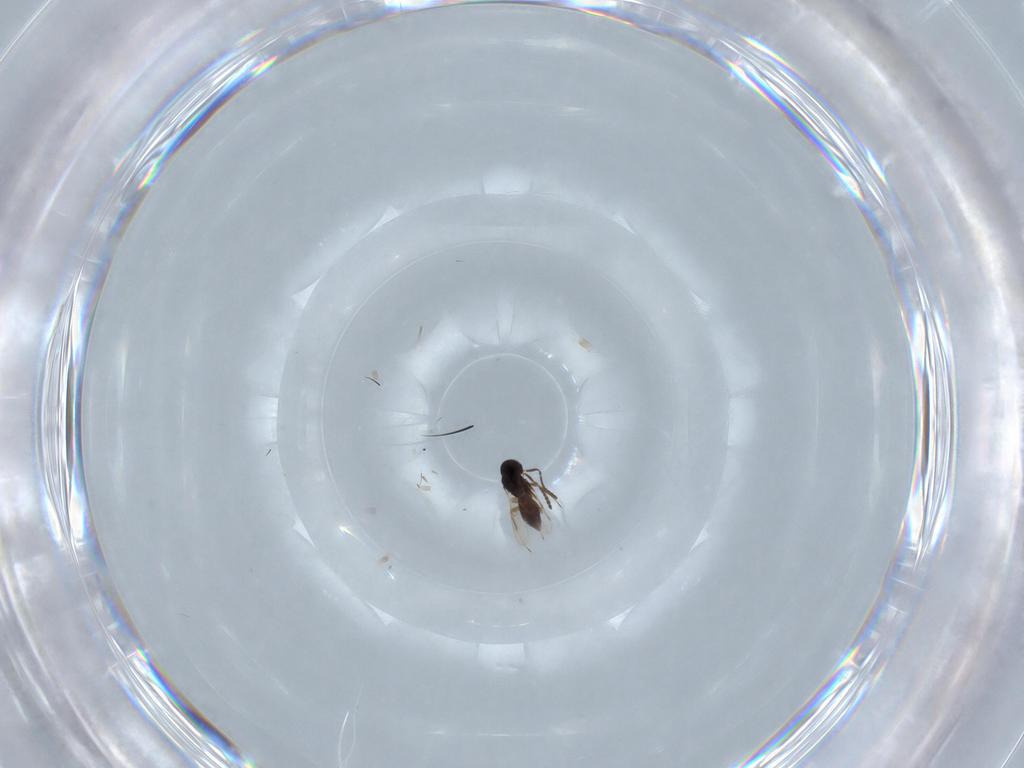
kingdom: Animalia
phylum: Arthropoda
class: Insecta
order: Hymenoptera
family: Scelionidae
